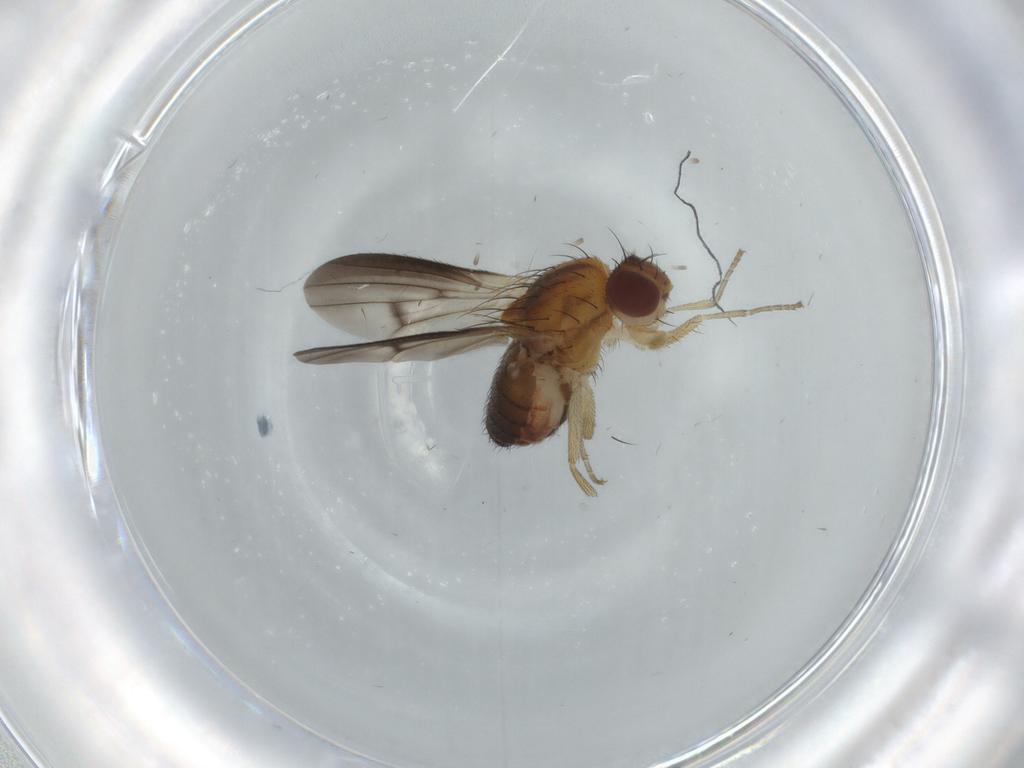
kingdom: Animalia
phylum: Arthropoda
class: Insecta
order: Diptera
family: Heleomyzidae
